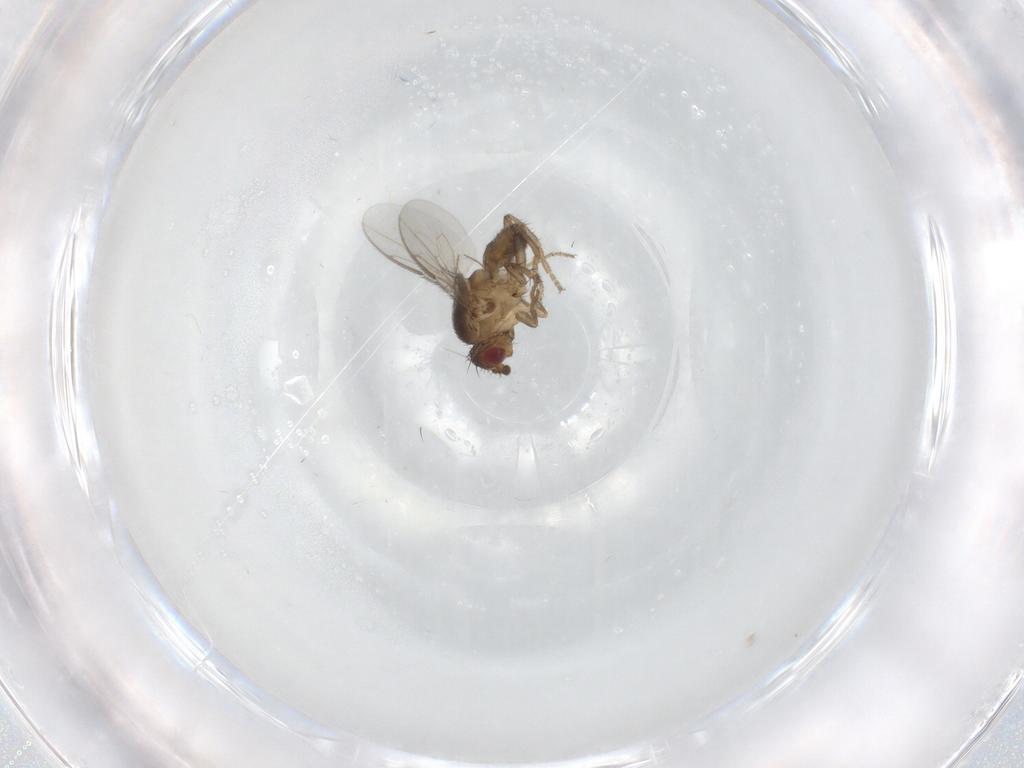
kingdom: Animalia
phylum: Arthropoda
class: Insecta
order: Diptera
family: Ceratopogonidae
